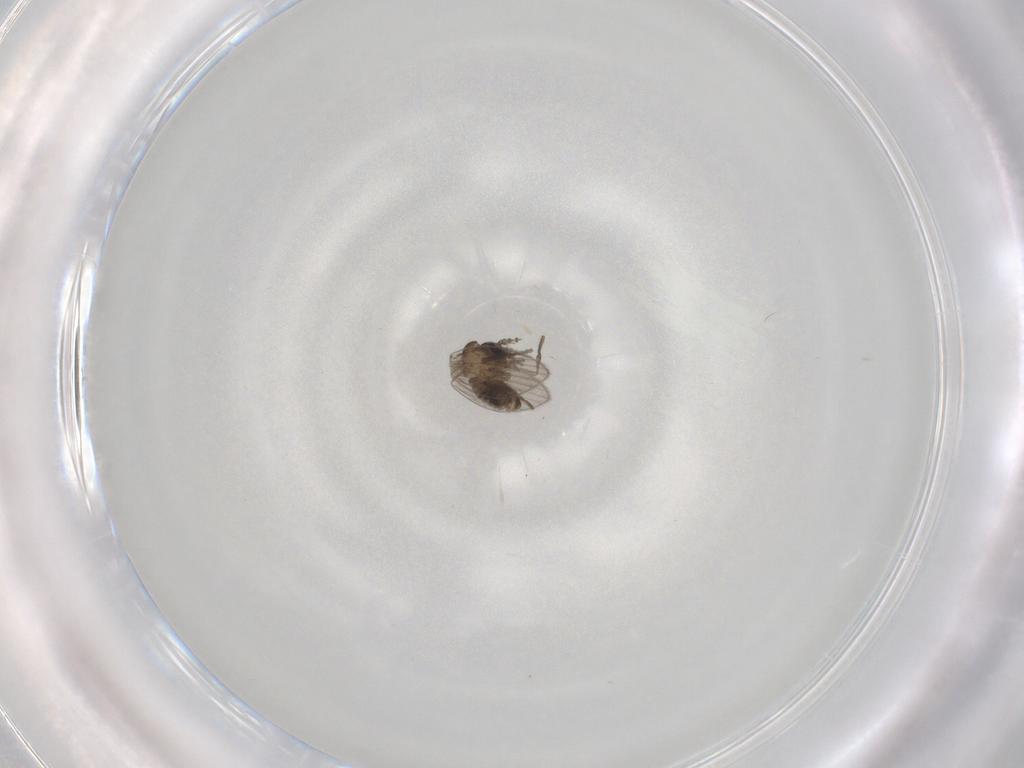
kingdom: Animalia
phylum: Arthropoda
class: Insecta
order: Diptera
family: Psychodidae
